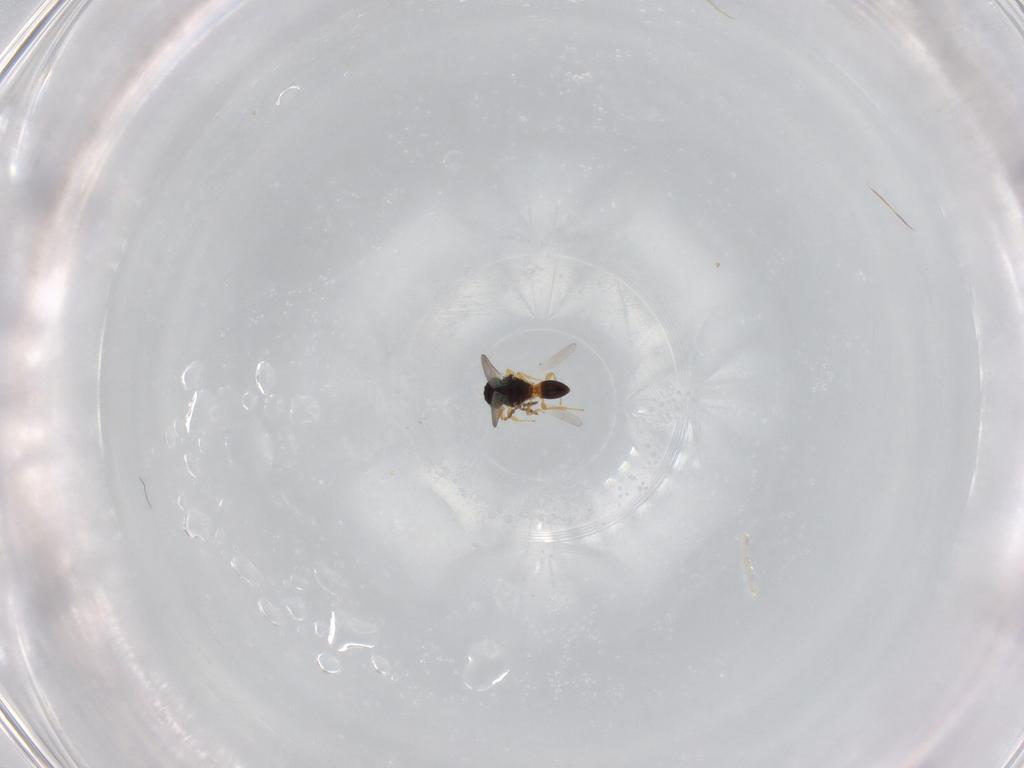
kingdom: Animalia
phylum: Arthropoda
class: Insecta
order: Hymenoptera
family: Platygastridae
